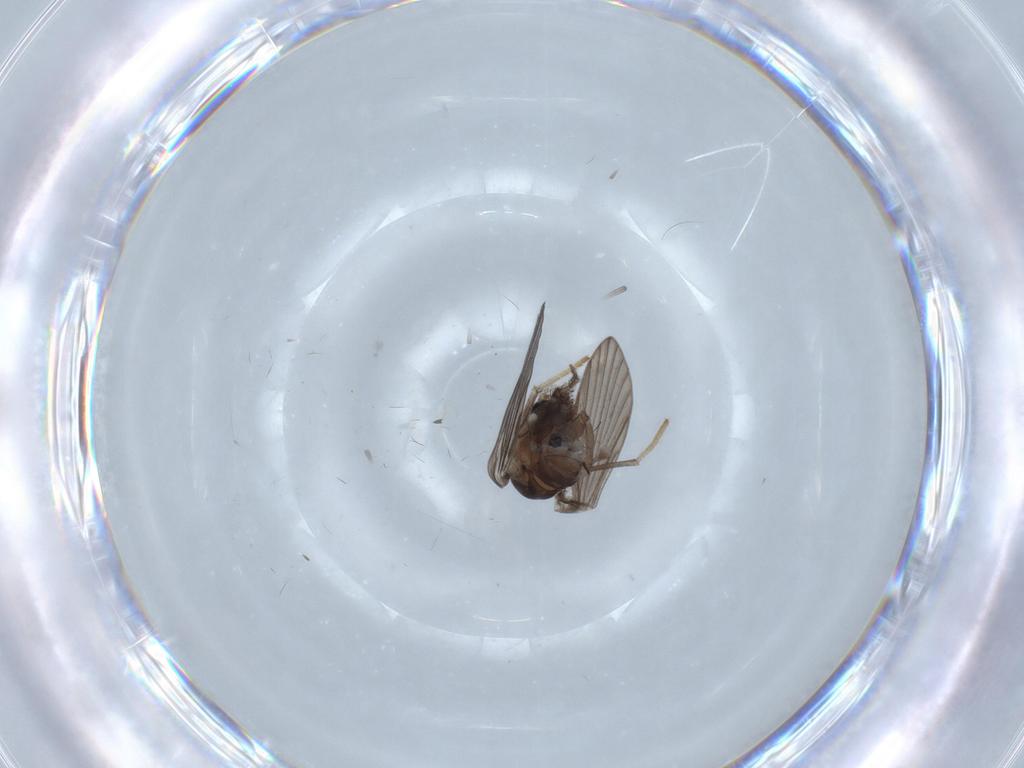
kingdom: Animalia
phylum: Arthropoda
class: Insecta
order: Diptera
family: Psychodidae
